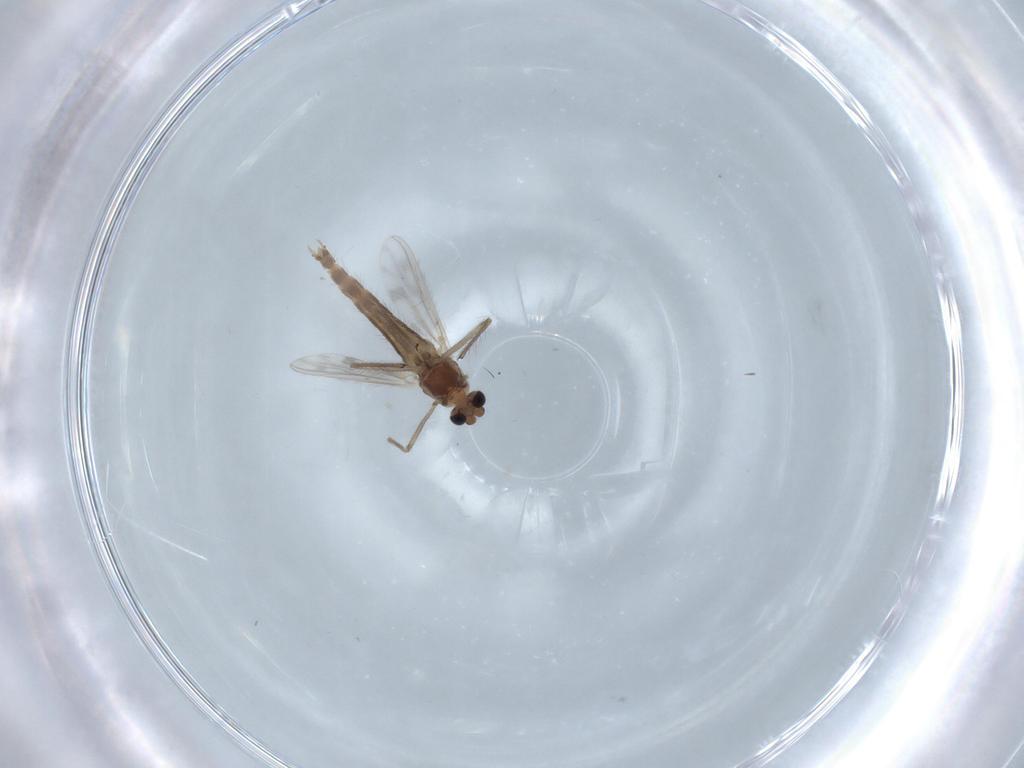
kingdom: Animalia
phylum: Arthropoda
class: Insecta
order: Diptera
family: Chironomidae
